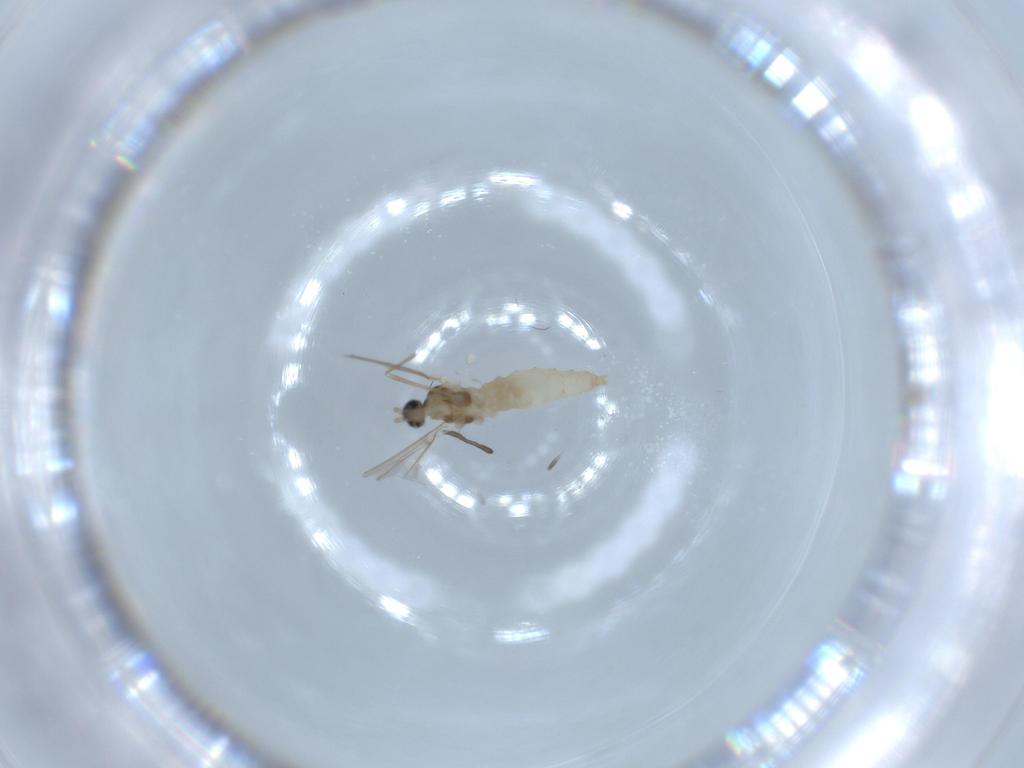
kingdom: Animalia
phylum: Arthropoda
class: Insecta
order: Diptera
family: Cecidomyiidae
